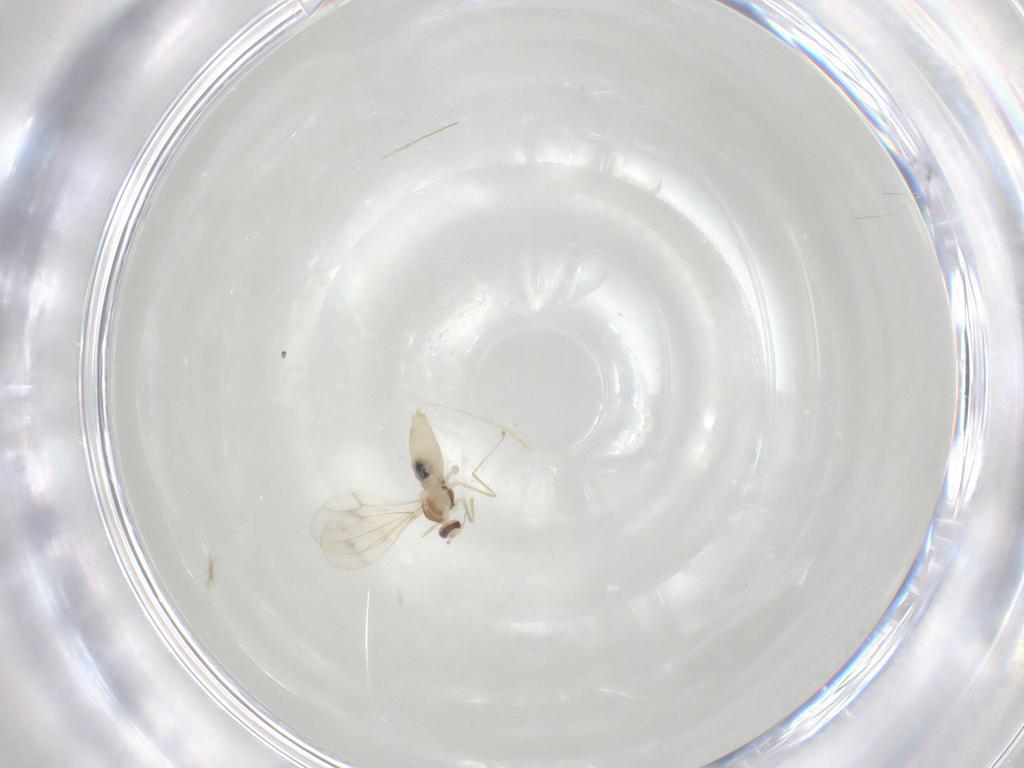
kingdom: Animalia
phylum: Arthropoda
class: Insecta
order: Diptera
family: Cecidomyiidae
